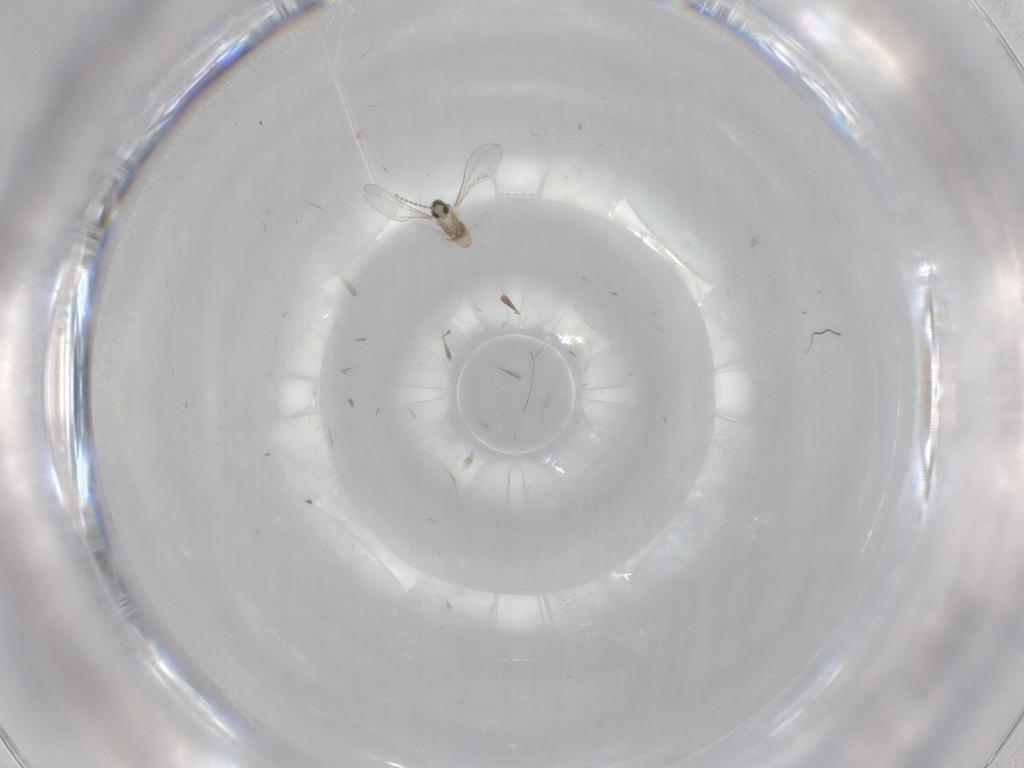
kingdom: Animalia
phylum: Arthropoda
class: Insecta
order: Diptera
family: Cecidomyiidae
